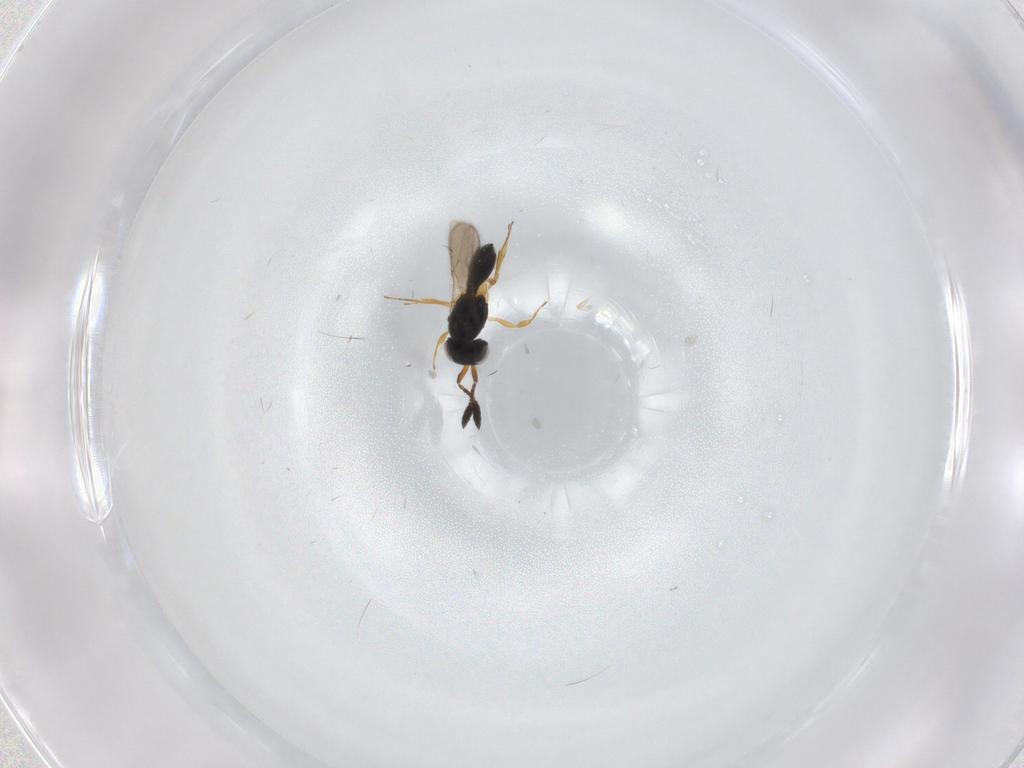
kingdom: Animalia
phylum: Arthropoda
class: Insecta
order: Hymenoptera
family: Scelionidae
